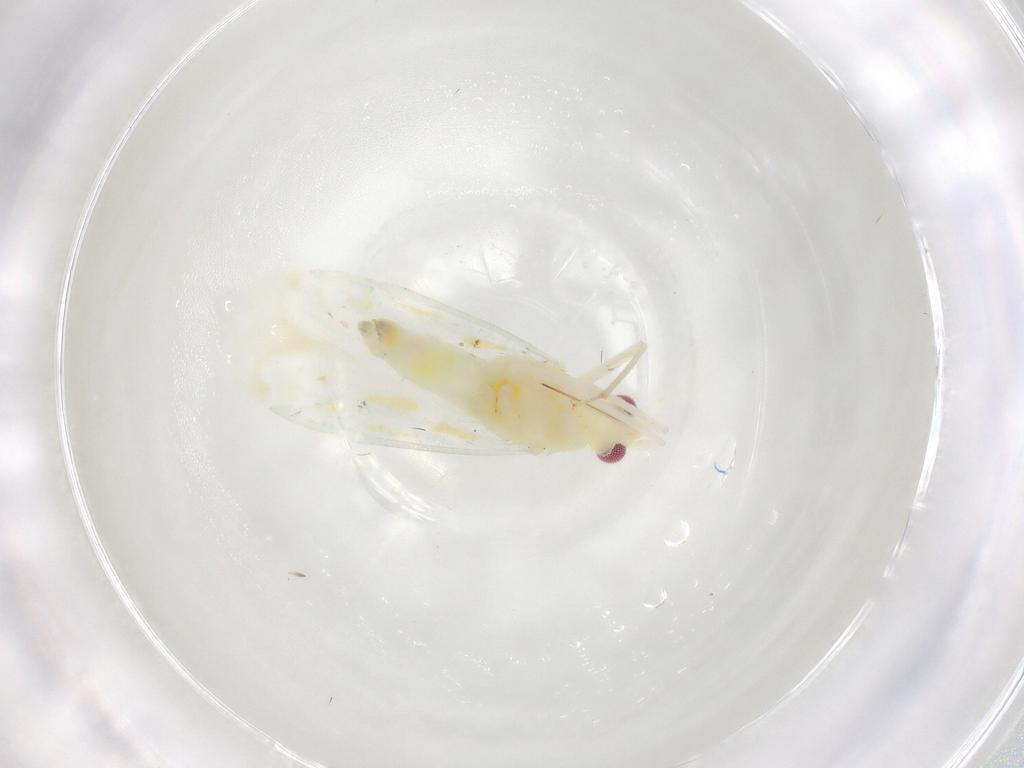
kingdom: Animalia
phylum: Arthropoda
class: Insecta
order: Hemiptera
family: Miridae
